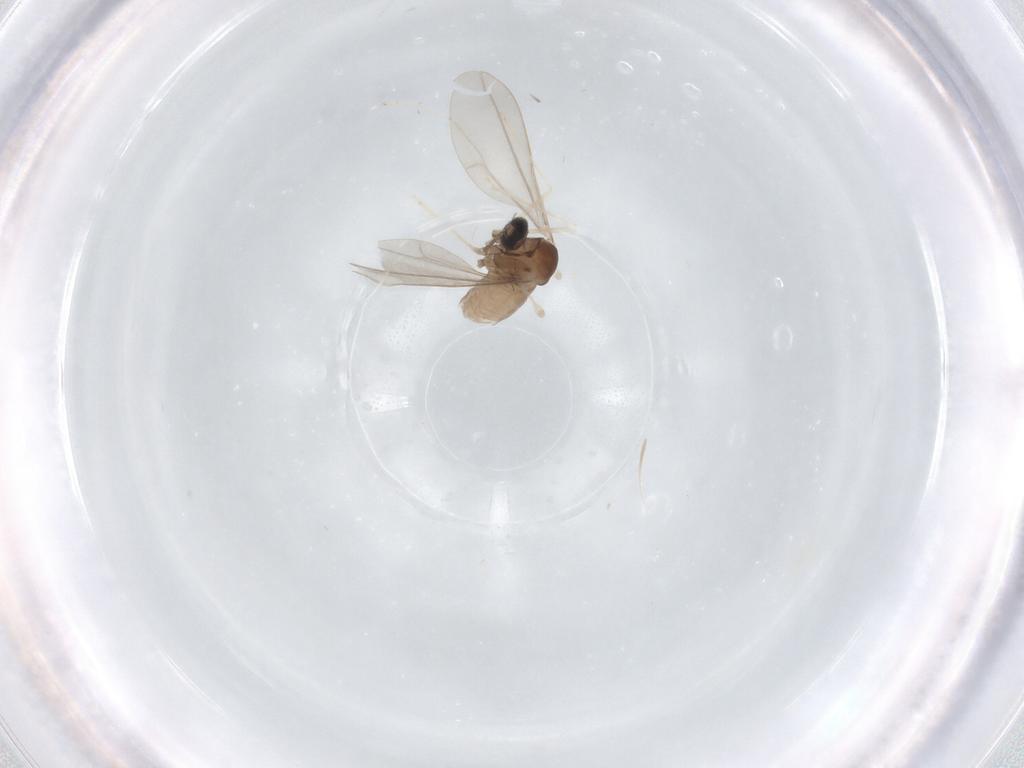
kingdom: Animalia
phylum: Arthropoda
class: Insecta
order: Diptera
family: Cecidomyiidae
